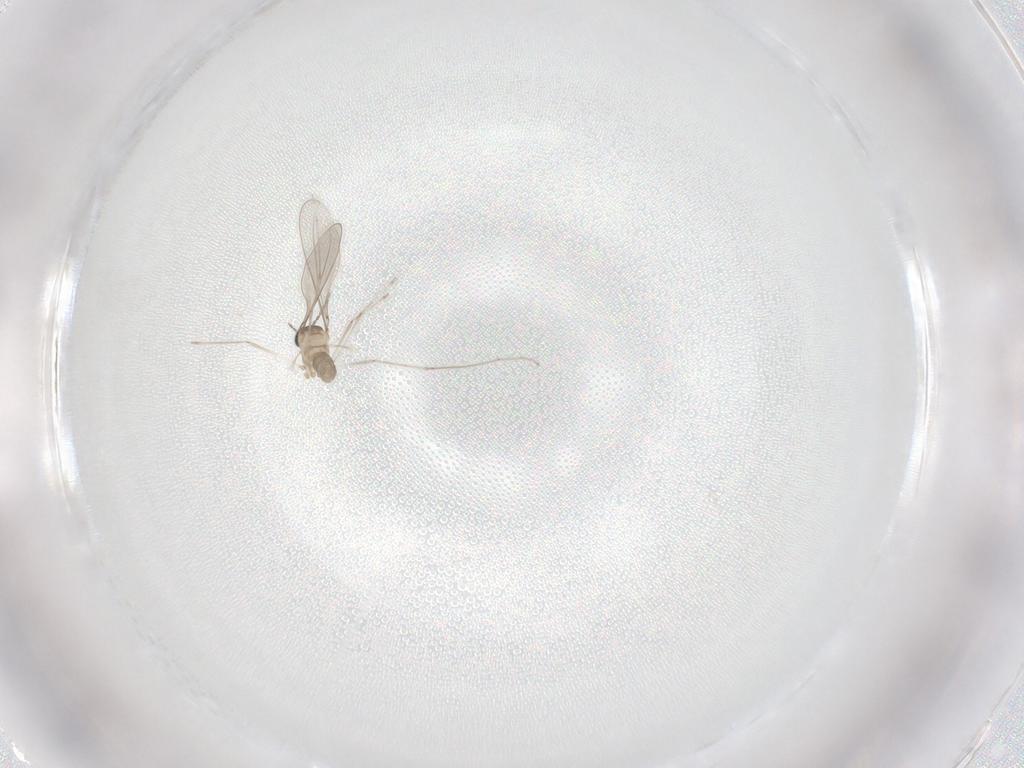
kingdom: Animalia
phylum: Arthropoda
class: Insecta
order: Diptera
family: Cecidomyiidae
